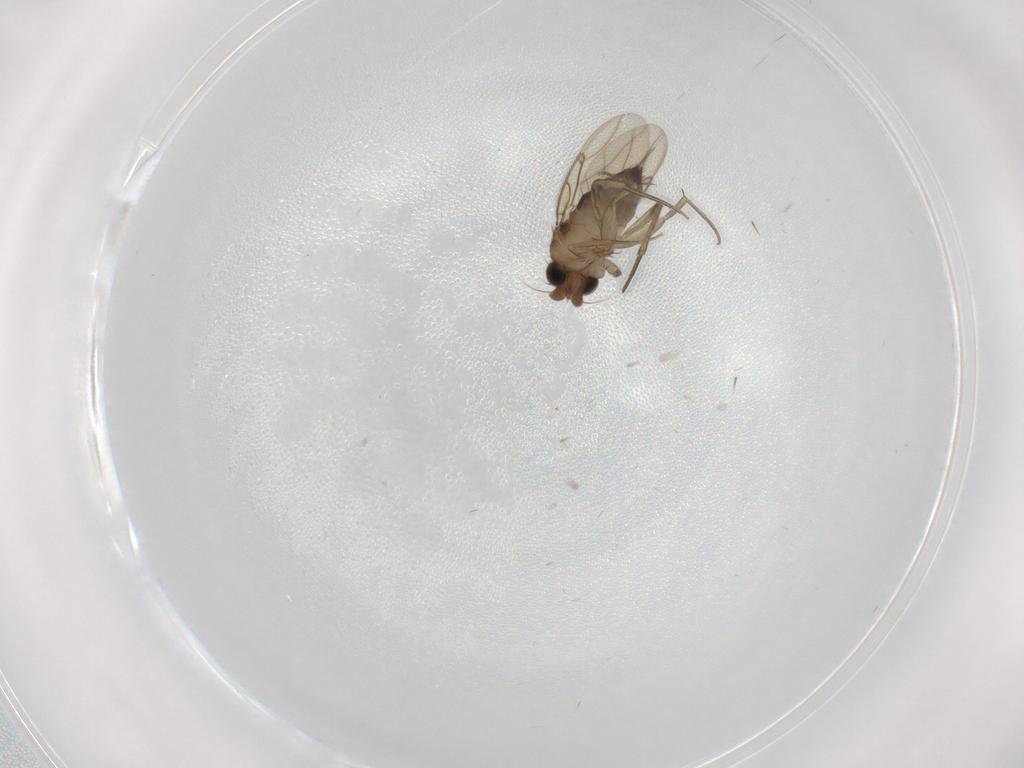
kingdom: Animalia
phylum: Arthropoda
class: Insecta
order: Diptera
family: Phoridae
